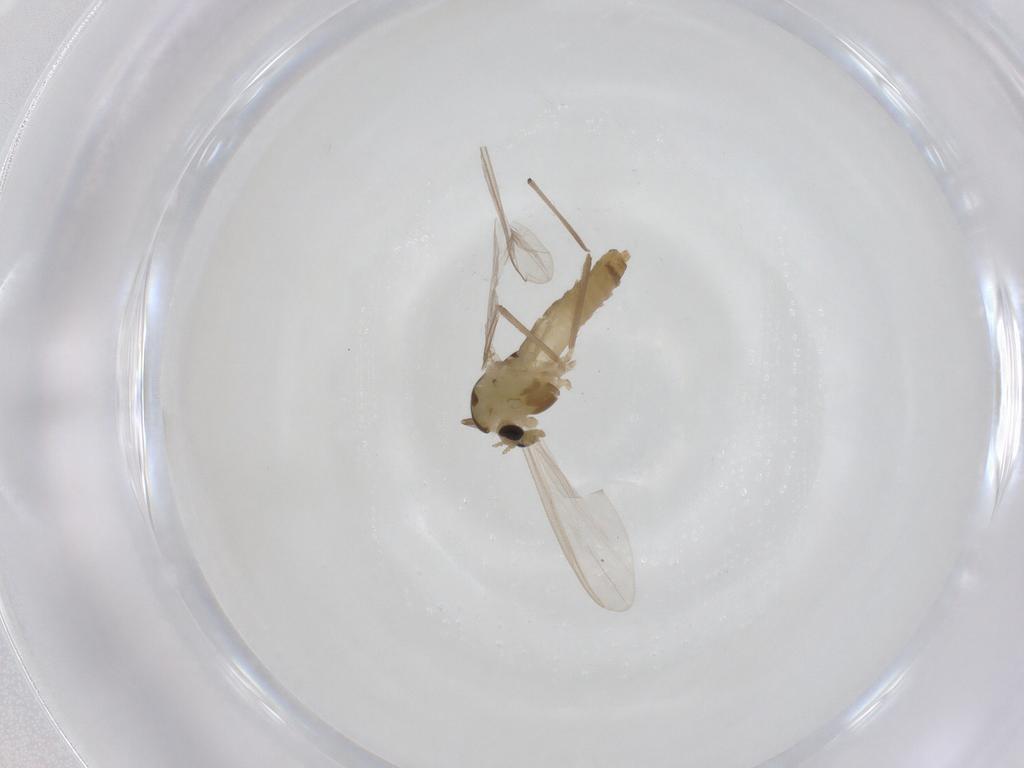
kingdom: Animalia
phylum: Arthropoda
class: Insecta
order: Diptera
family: Chironomidae
